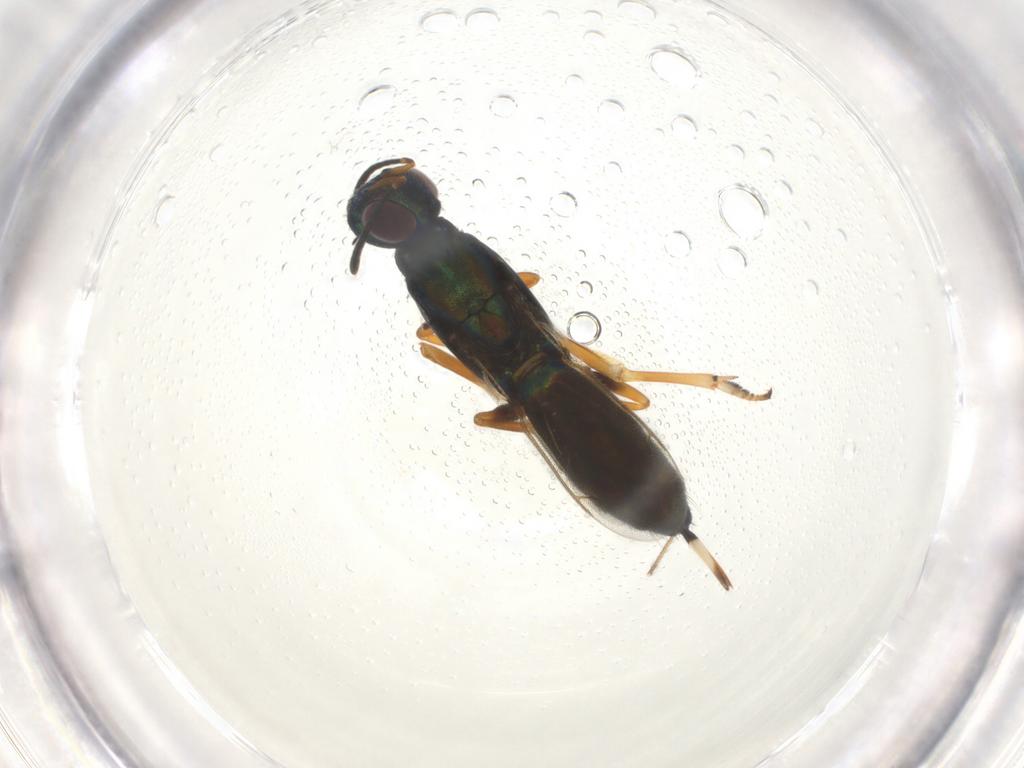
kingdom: Animalia
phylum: Arthropoda
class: Insecta
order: Hymenoptera
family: Eupelmidae
